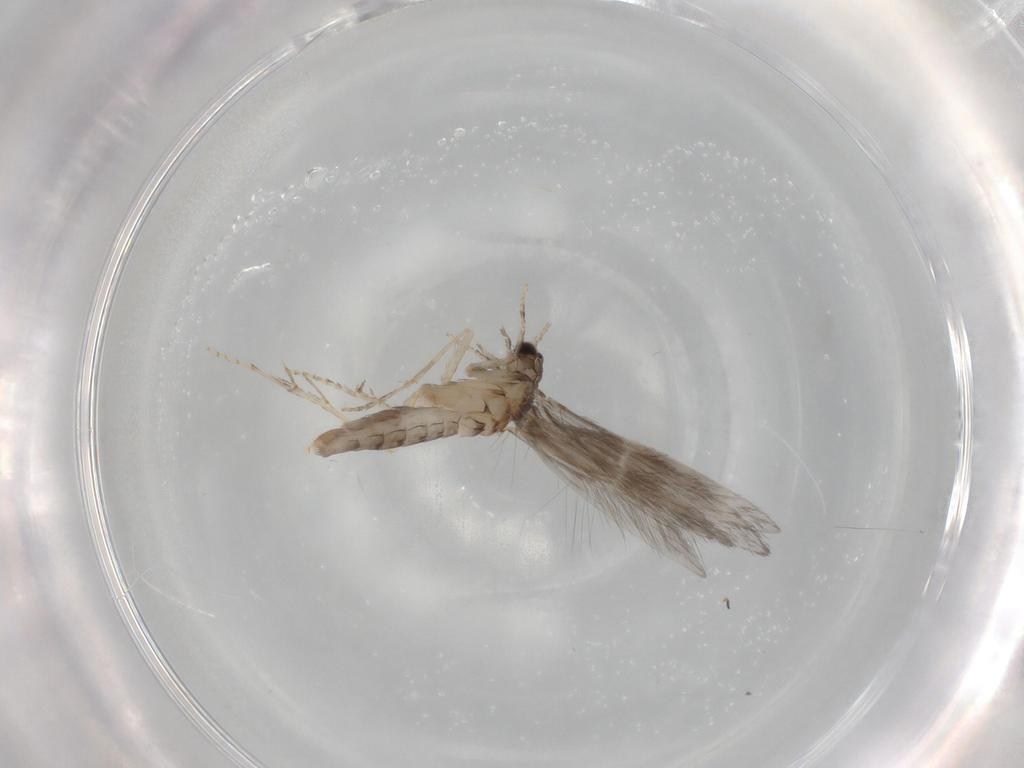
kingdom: Animalia
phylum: Arthropoda
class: Insecta
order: Trichoptera
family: Hydroptilidae
